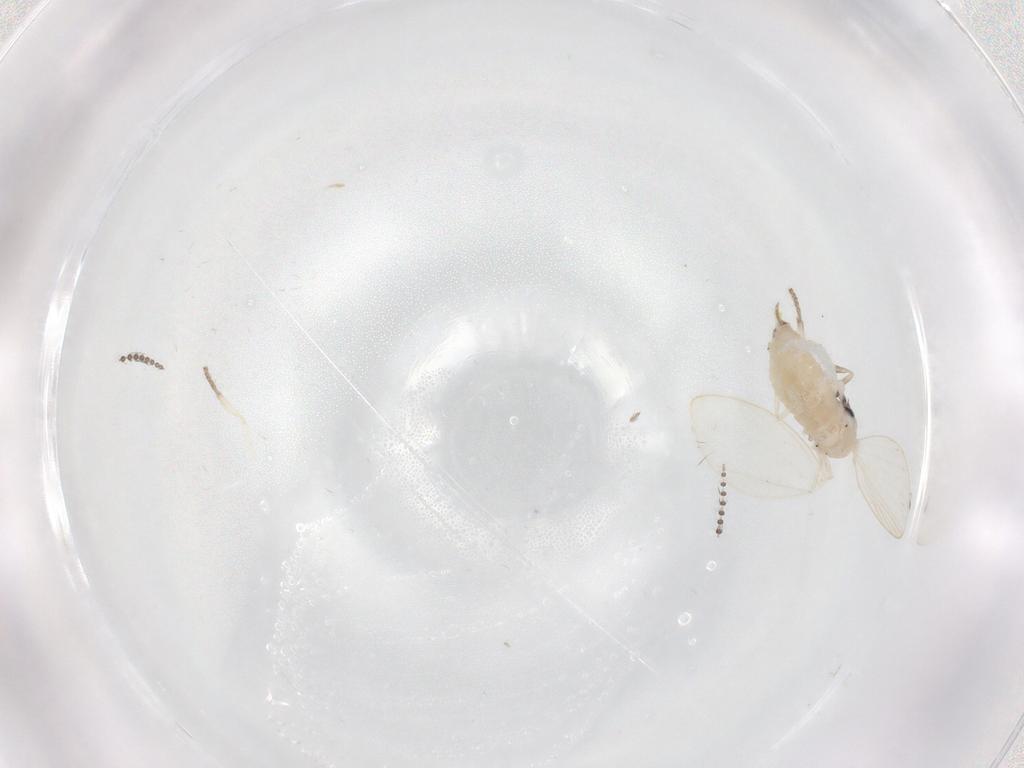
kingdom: Animalia
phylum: Arthropoda
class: Insecta
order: Diptera
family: Psychodidae
